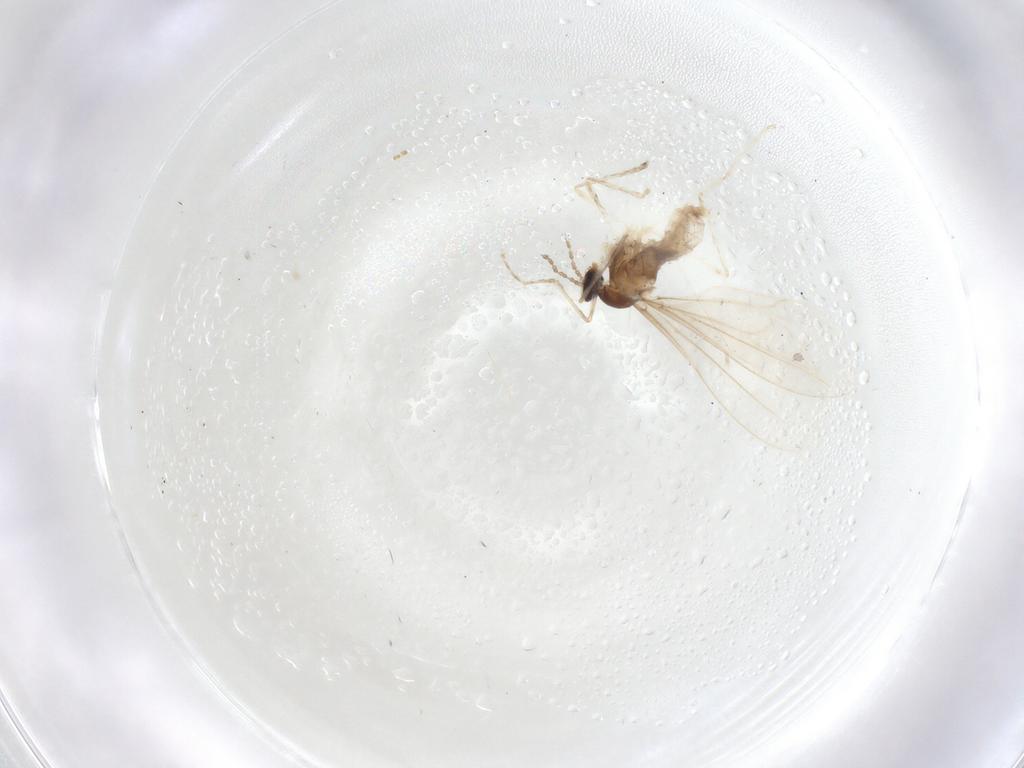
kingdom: Animalia
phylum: Arthropoda
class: Insecta
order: Diptera
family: Cecidomyiidae
